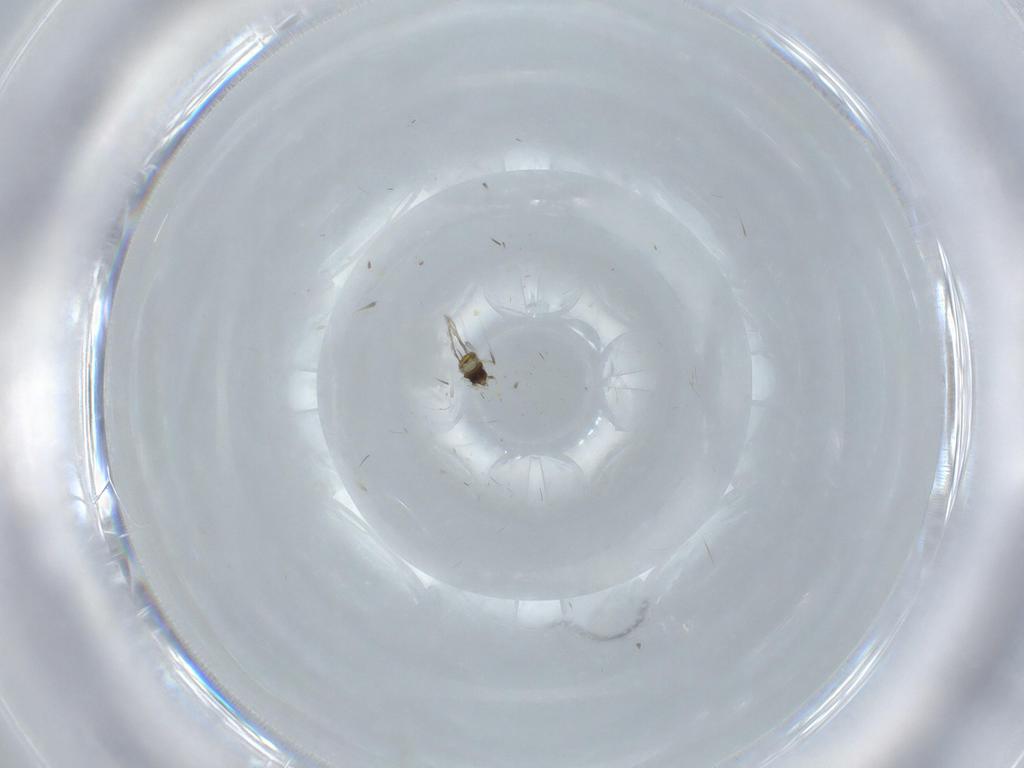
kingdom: Animalia
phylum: Arthropoda
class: Insecta
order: Hymenoptera
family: Aphelinidae
